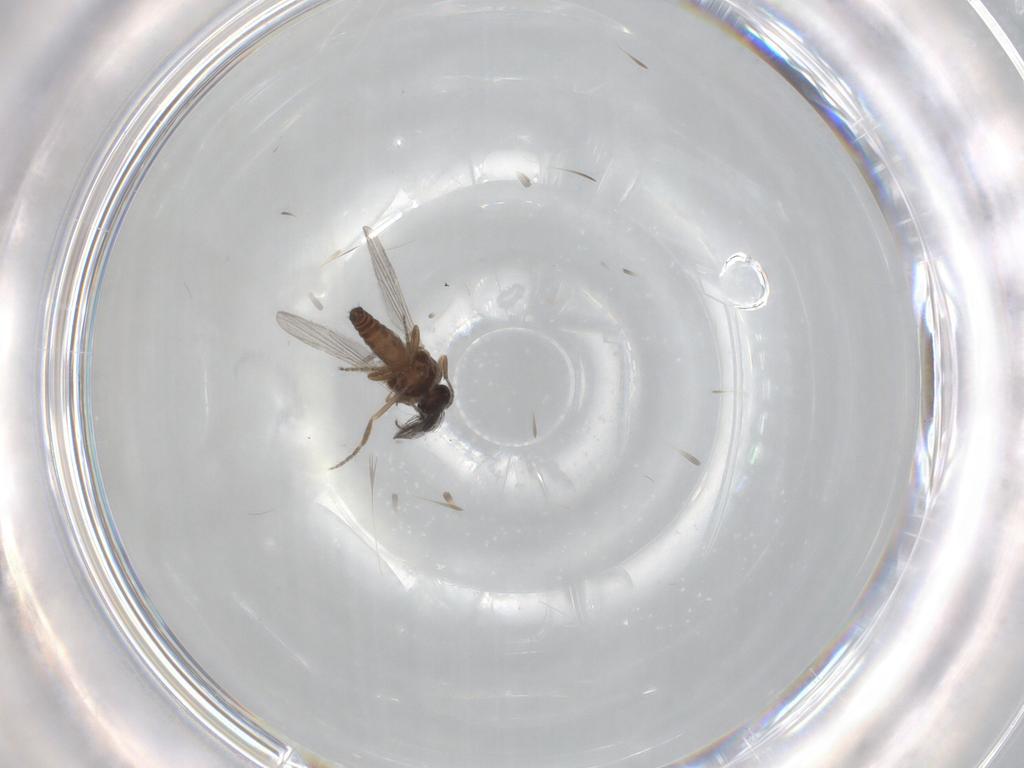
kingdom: Animalia
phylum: Arthropoda
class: Insecta
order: Diptera
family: Ceratopogonidae
